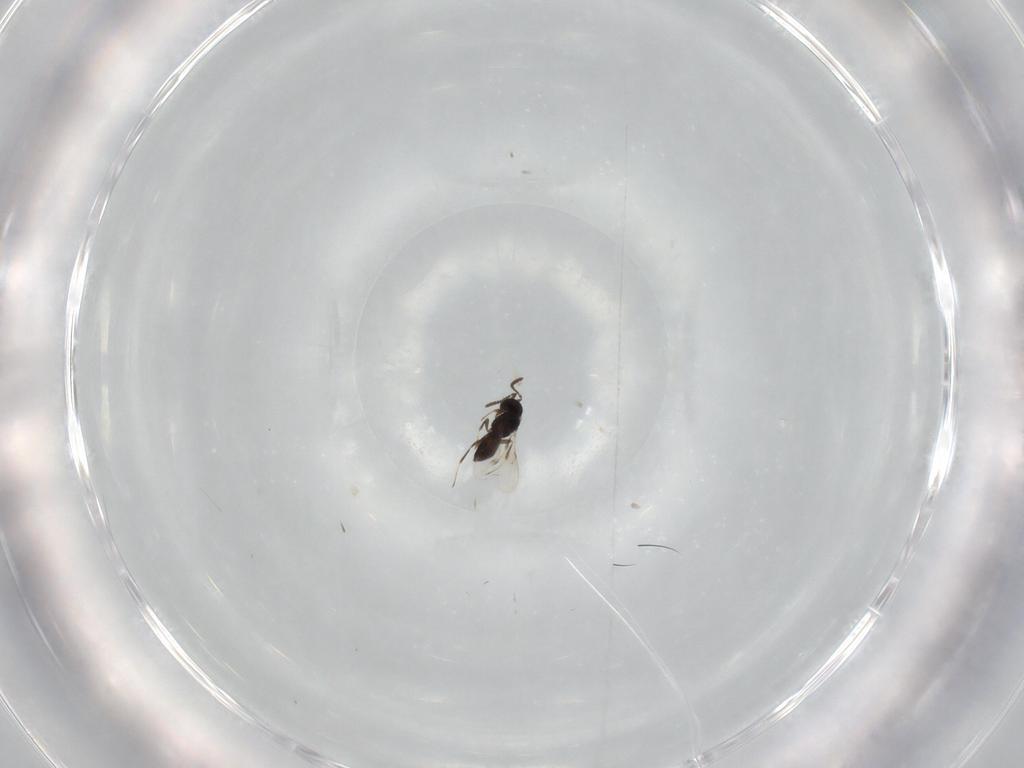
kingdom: Animalia
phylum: Arthropoda
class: Insecta
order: Hymenoptera
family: Scelionidae
